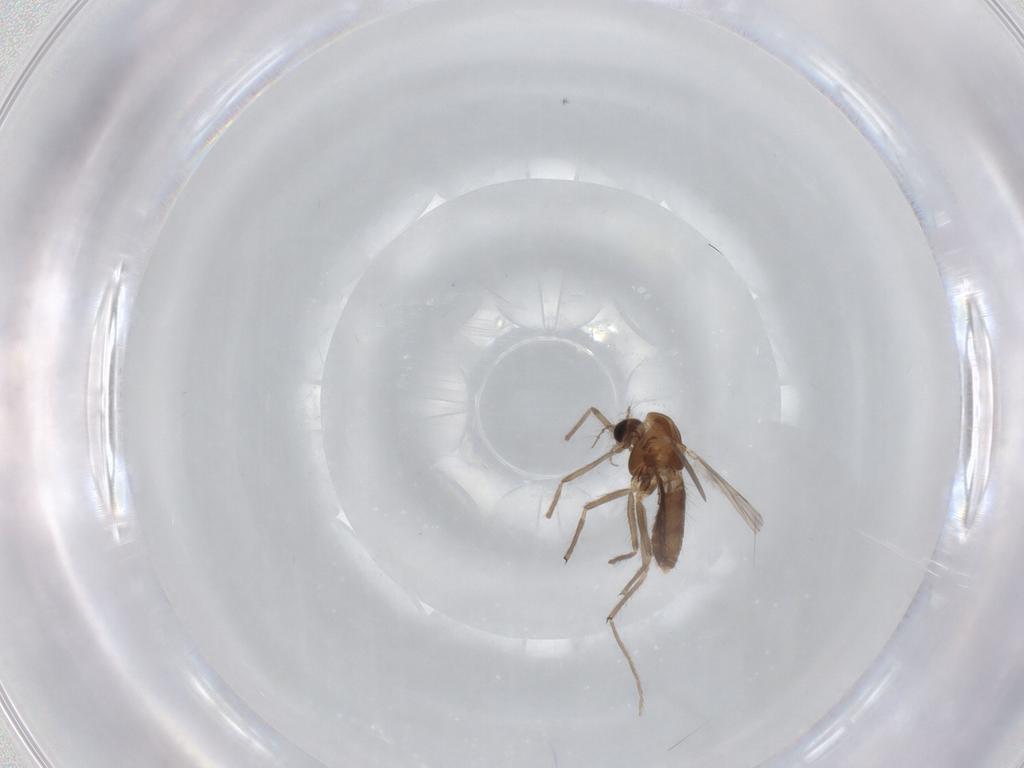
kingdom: Animalia
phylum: Arthropoda
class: Insecta
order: Diptera
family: Chironomidae
